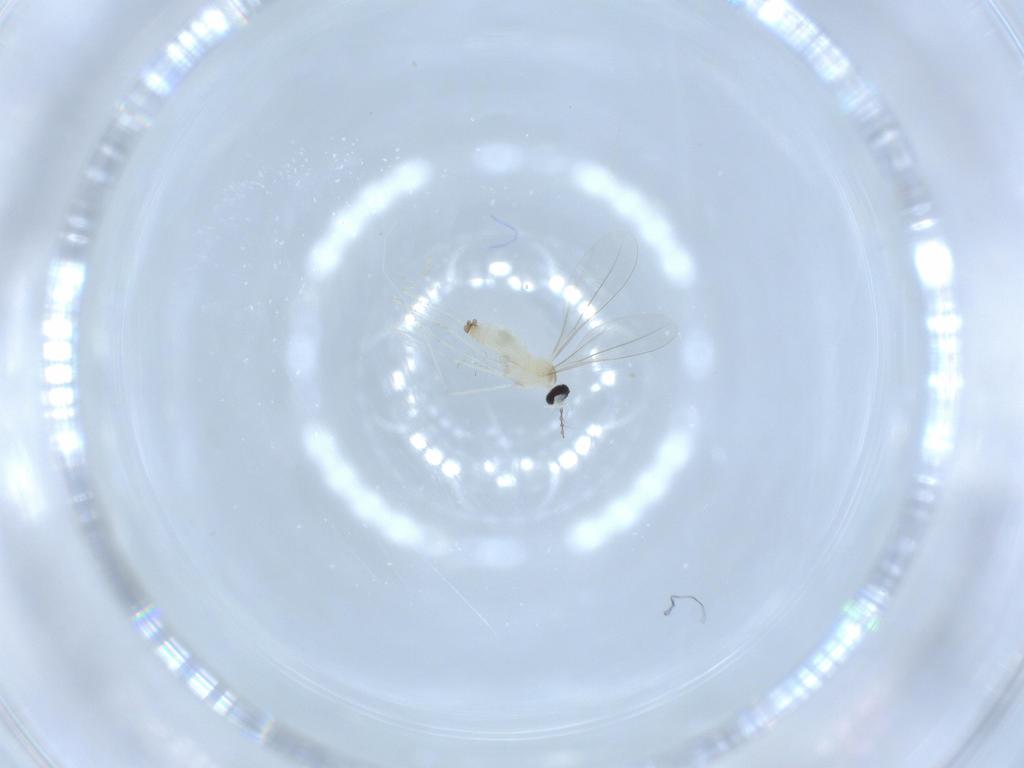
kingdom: Animalia
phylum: Arthropoda
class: Insecta
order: Diptera
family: Cecidomyiidae
